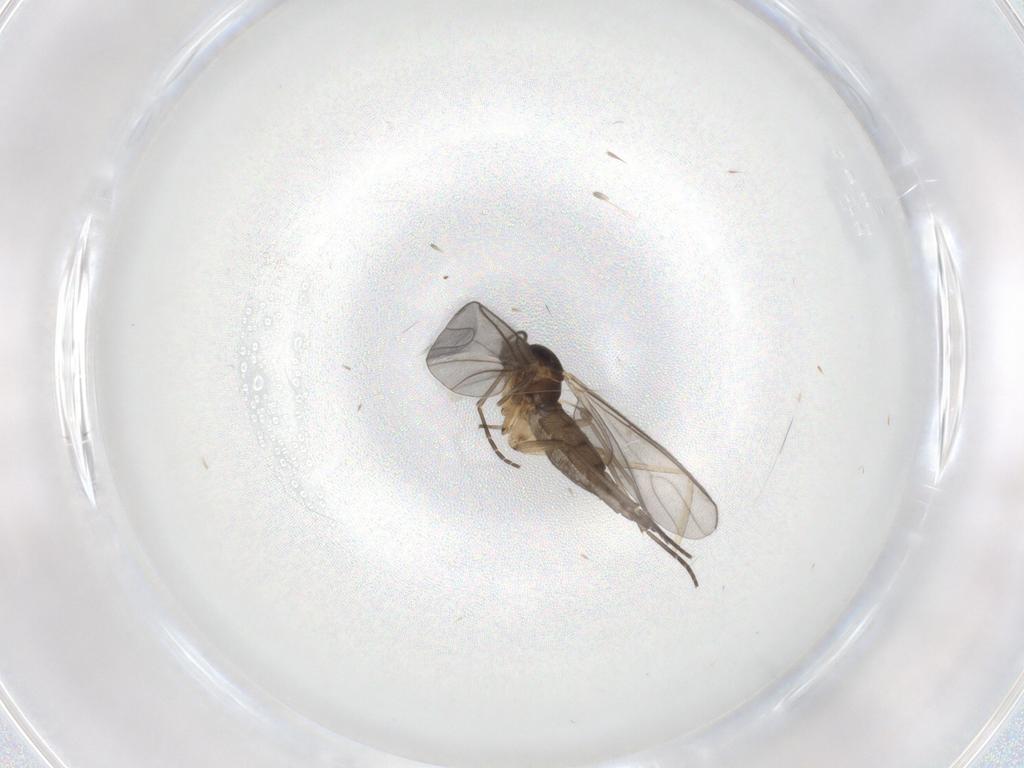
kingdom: Animalia
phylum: Arthropoda
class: Insecta
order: Diptera
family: Sciaridae
